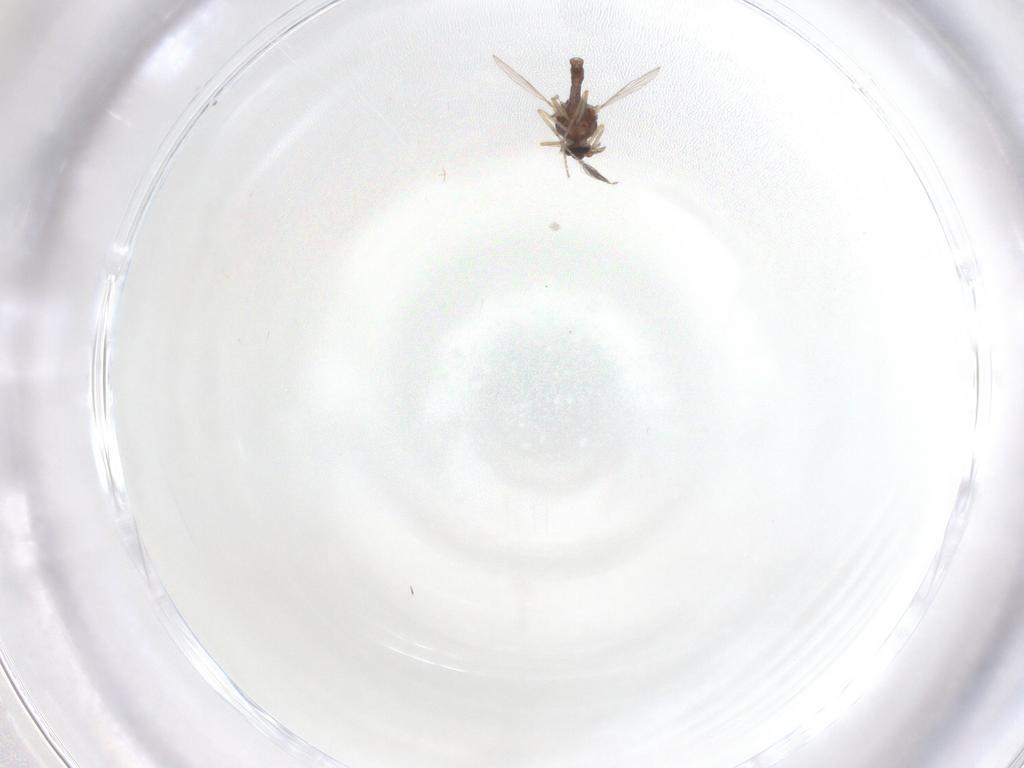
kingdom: Animalia
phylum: Arthropoda
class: Insecta
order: Diptera
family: Ceratopogonidae
